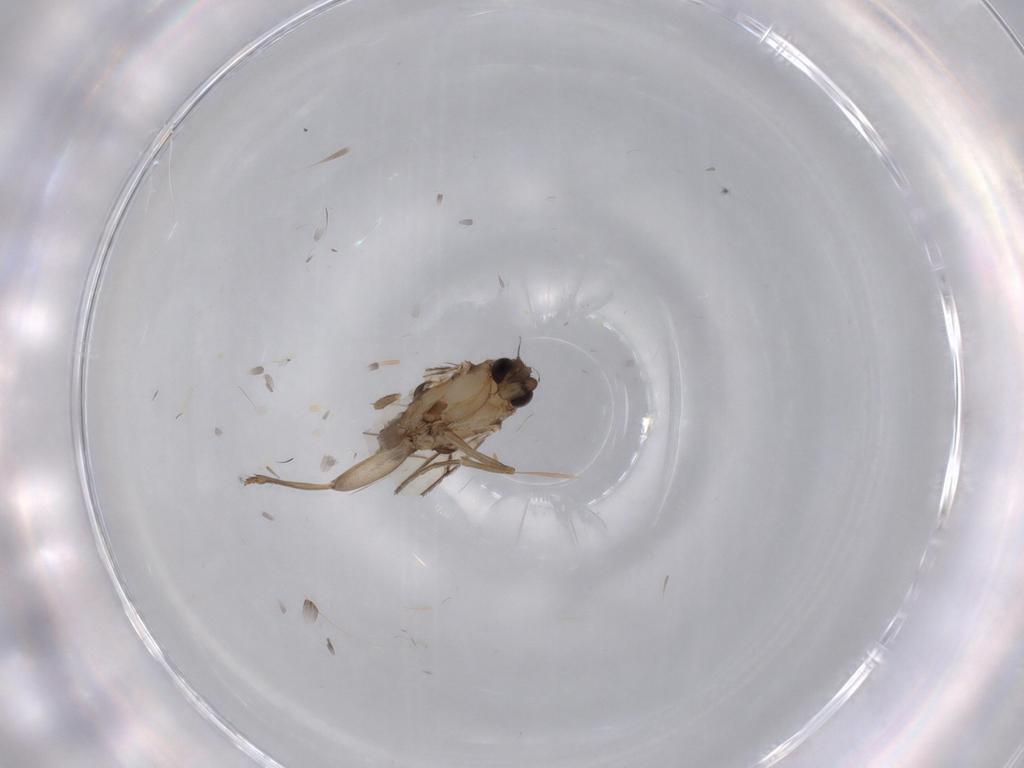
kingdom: Animalia
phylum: Arthropoda
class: Insecta
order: Diptera
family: Phoridae
